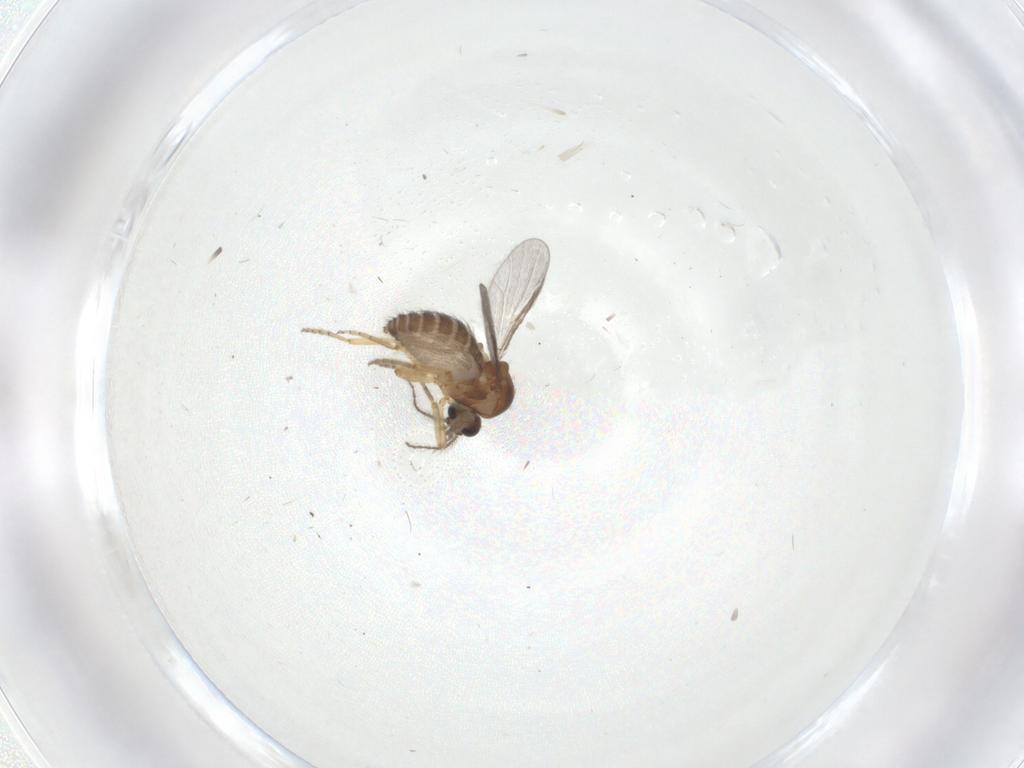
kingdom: Animalia
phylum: Arthropoda
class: Insecta
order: Diptera
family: Ceratopogonidae
